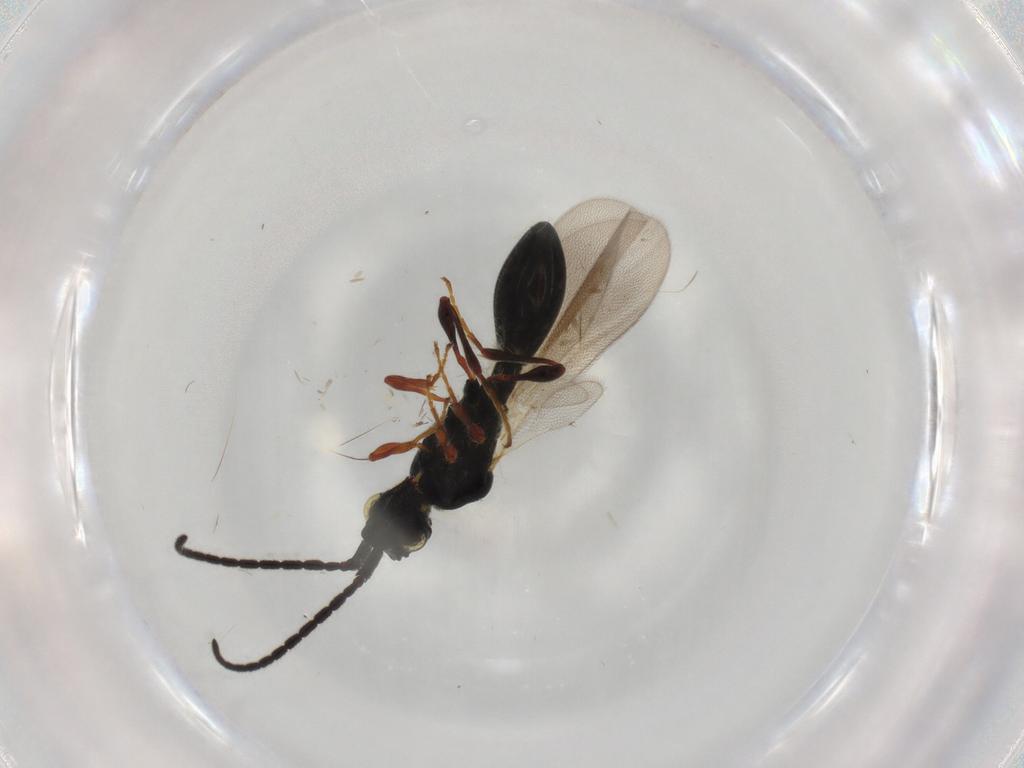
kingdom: Animalia
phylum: Arthropoda
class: Insecta
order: Hymenoptera
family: Diapriidae
